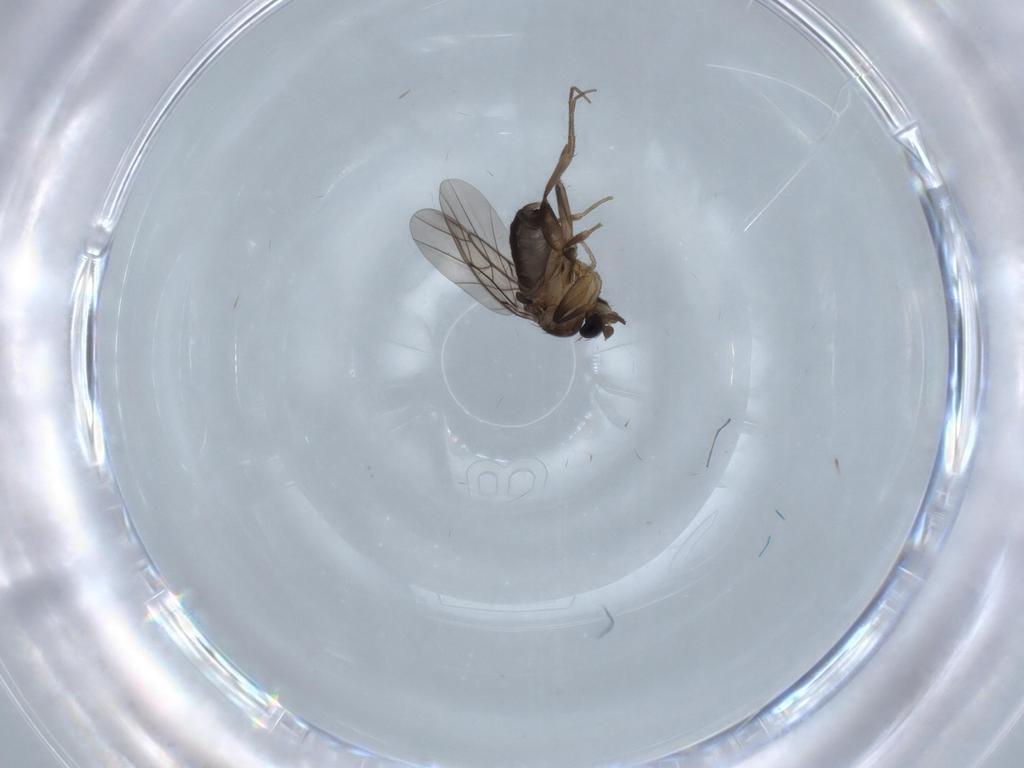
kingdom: Animalia
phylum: Arthropoda
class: Insecta
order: Diptera
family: Phoridae
